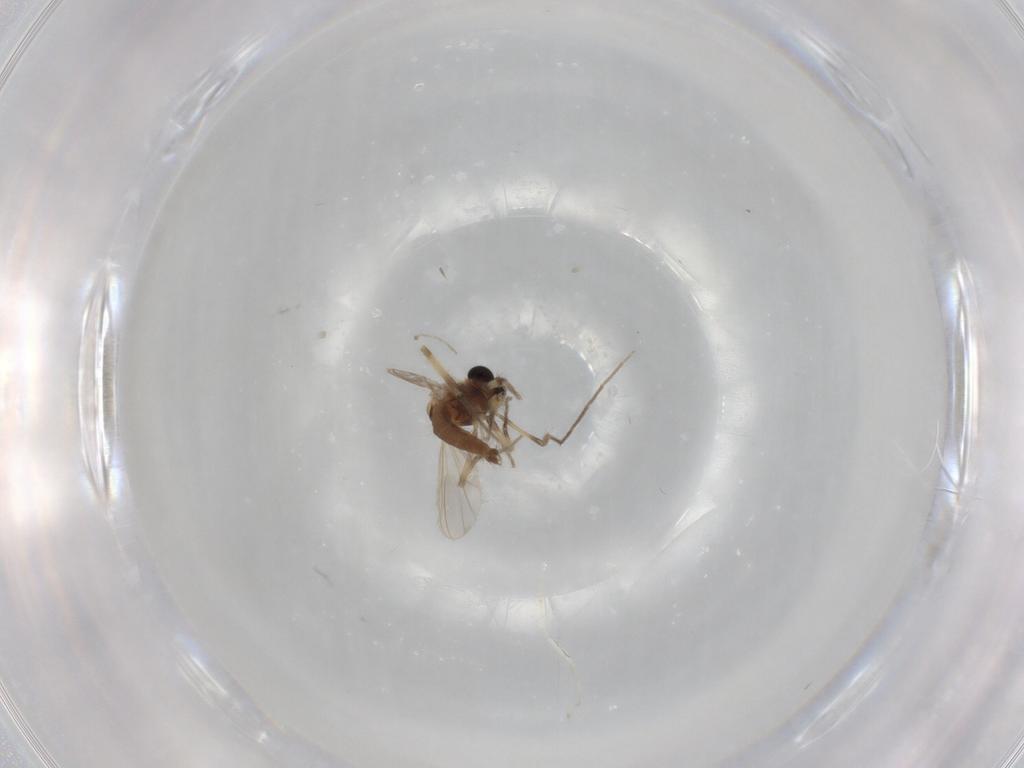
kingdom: Animalia
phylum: Arthropoda
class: Insecta
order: Diptera
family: Chironomidae
